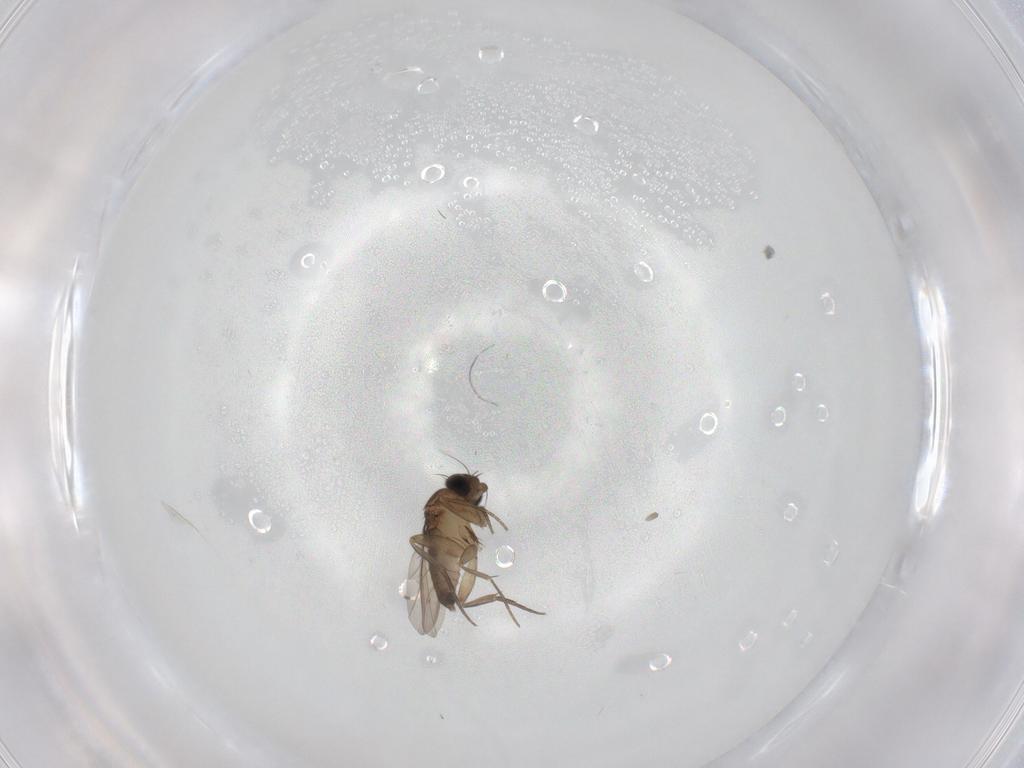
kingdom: Animalia
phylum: Arthropoda
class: Insecta
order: Diptera
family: Phoridae
